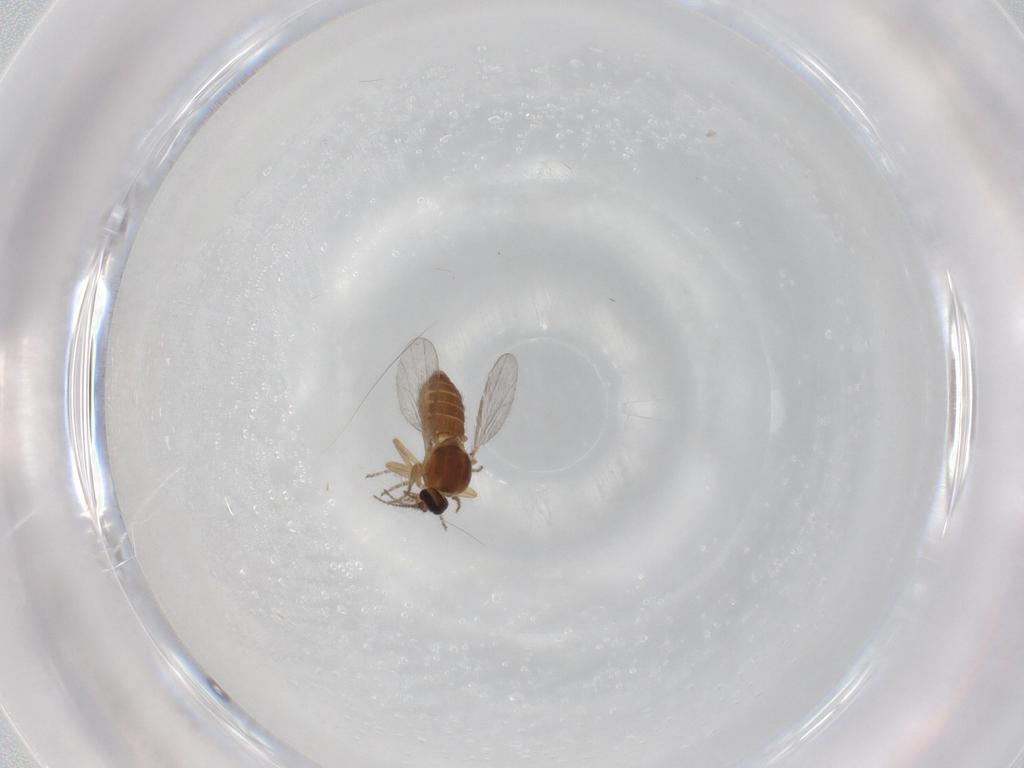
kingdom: Animalia
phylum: Arthropoda
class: Insecta
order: Diptera
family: Ceratopogonidae
